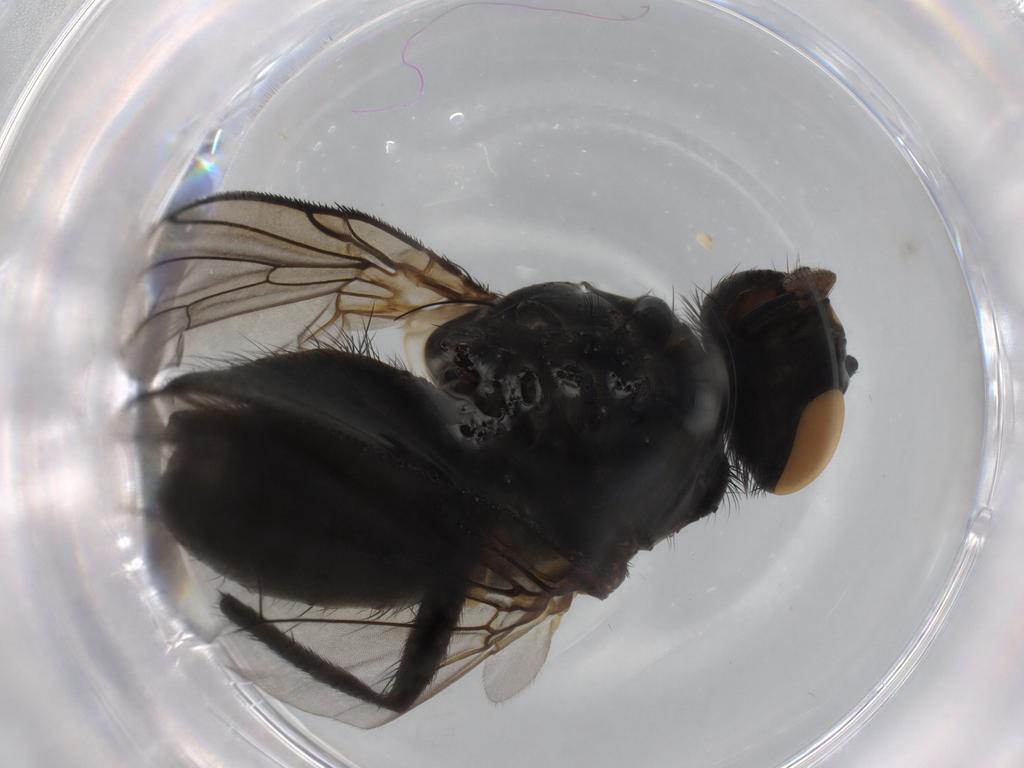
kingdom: Animalia
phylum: Arthropoda
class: Insecta
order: Diptera
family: Anthomyiidae
